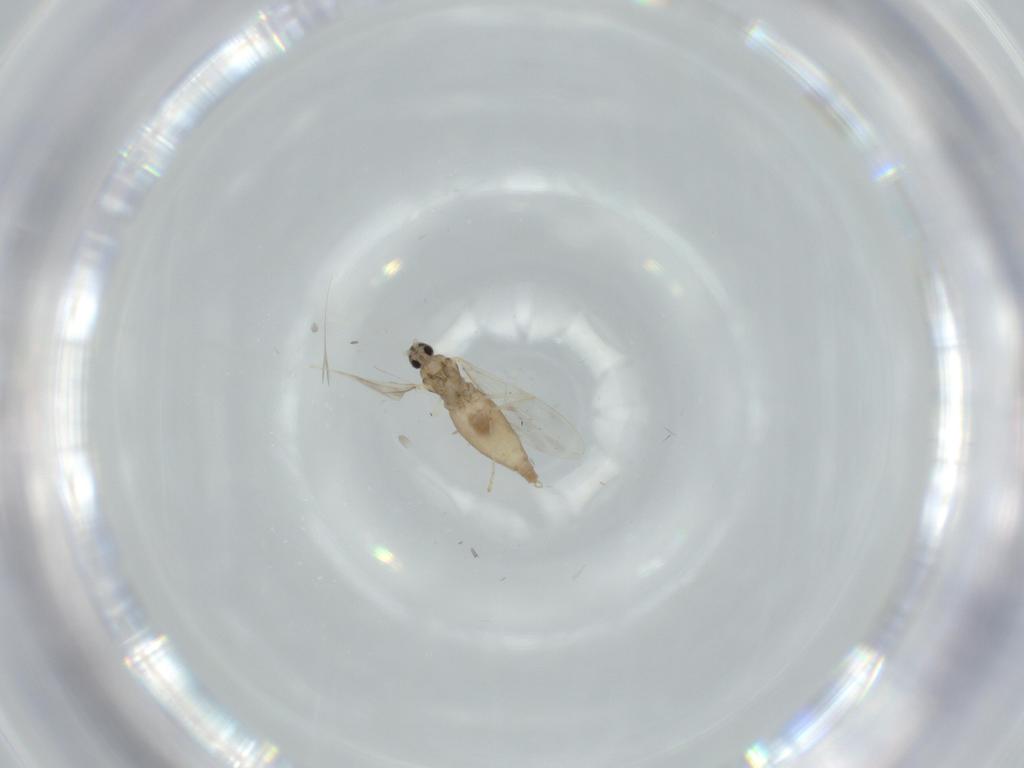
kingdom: Animalia
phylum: Arthropoda
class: Insecta
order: Diptera
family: Cecidomyiidae
